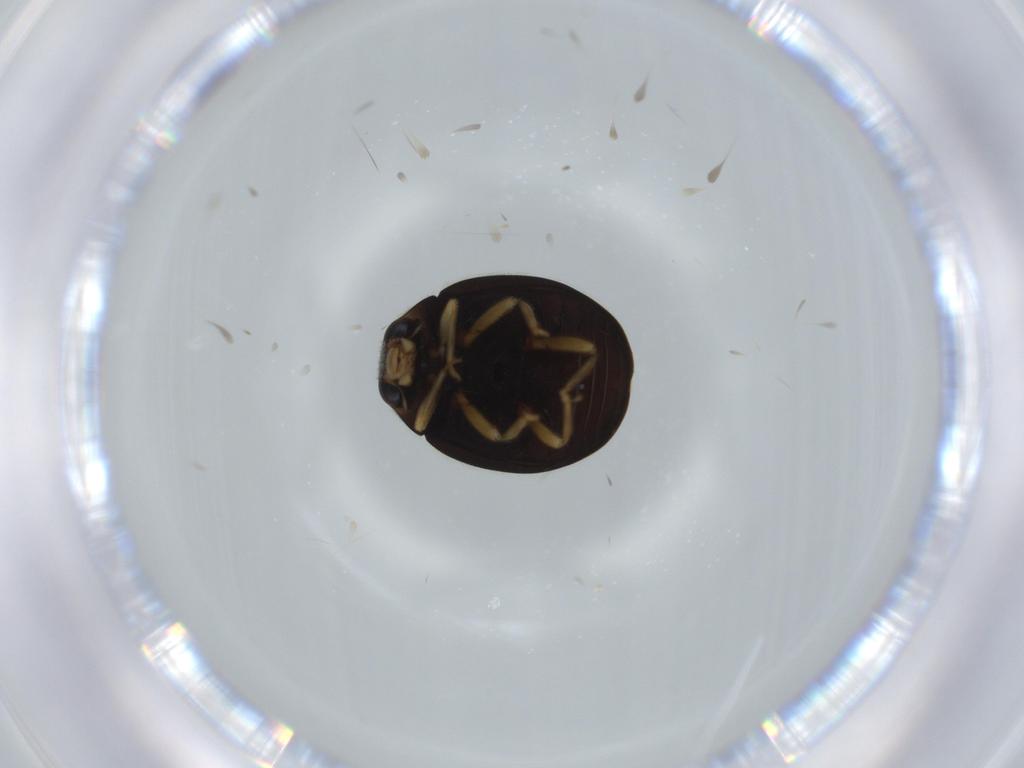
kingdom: Animalia
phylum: Arthropoda
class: Insecta
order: Coleoptera
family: Coccinellidae
